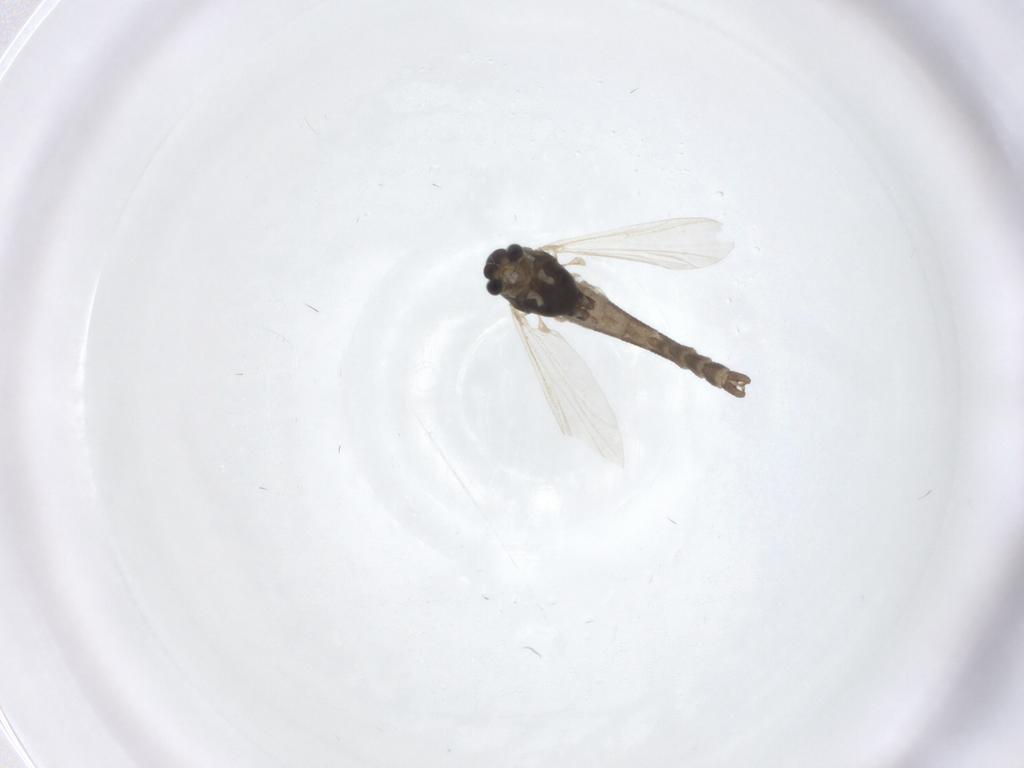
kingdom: Animalia
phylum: Arthropoda
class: Insecta
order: Diptera
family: Chironomidae
